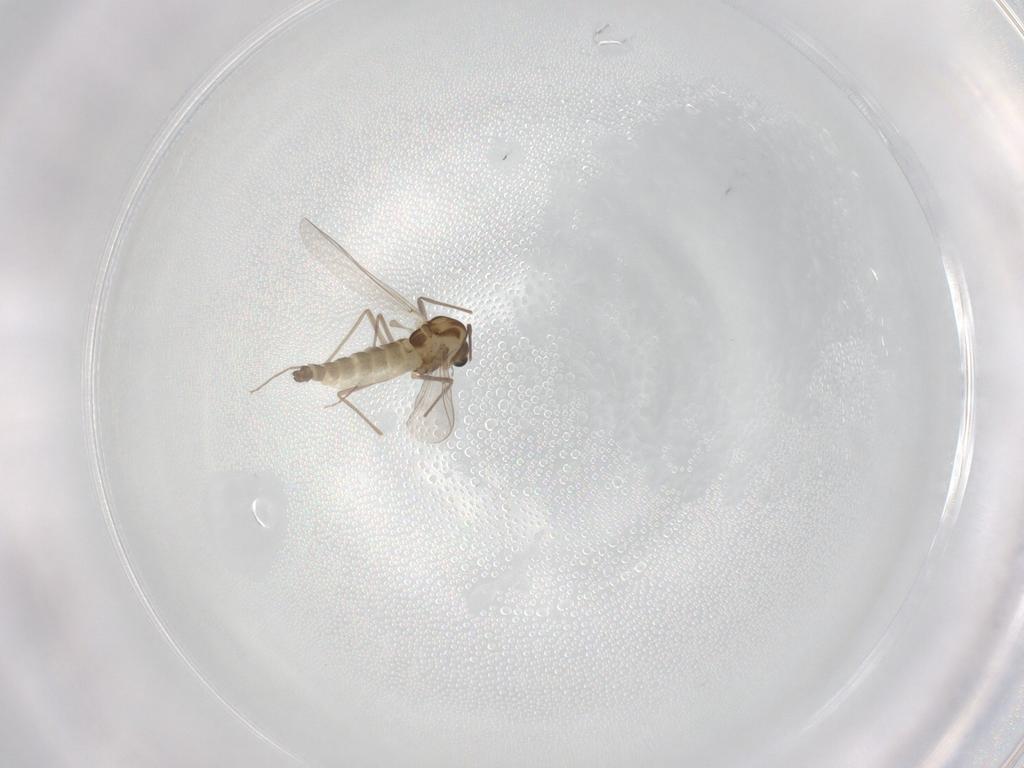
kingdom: Animalia
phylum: Arthropoda
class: Insecta
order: Diptera
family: Chironomidae
